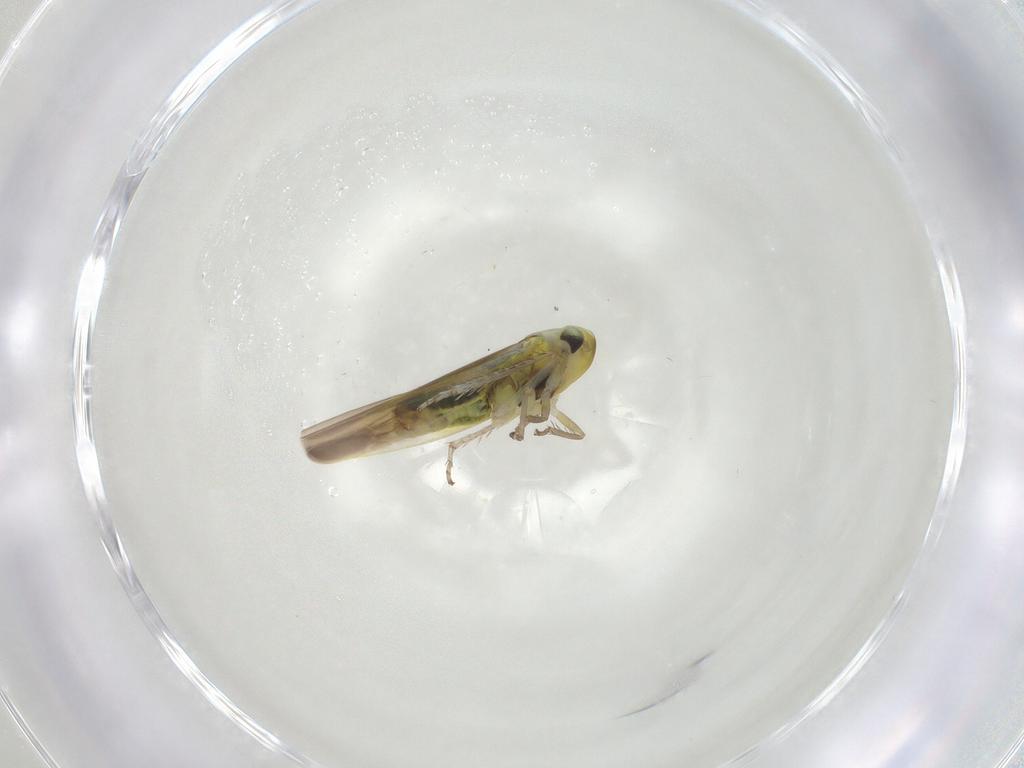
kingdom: Animalia
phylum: Arthropoda
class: Insecta
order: Hemiptera
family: Cicadellidae
